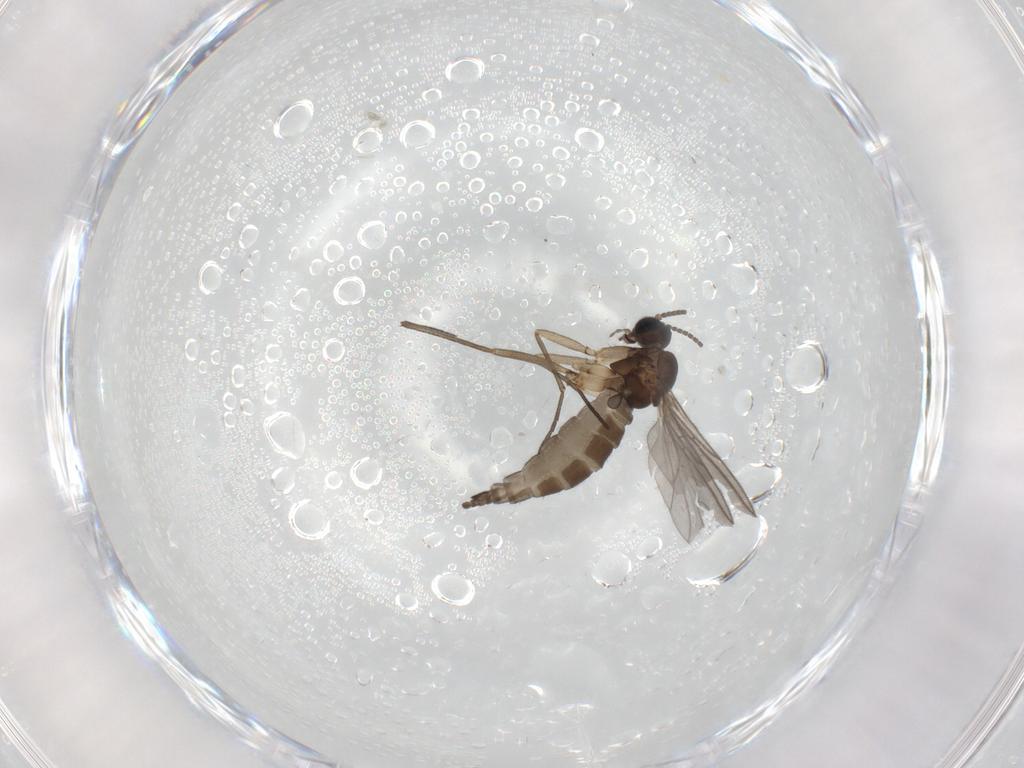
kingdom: Animalia
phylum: Arthropoda
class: Insecta
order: Diptera
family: Sciaridae
